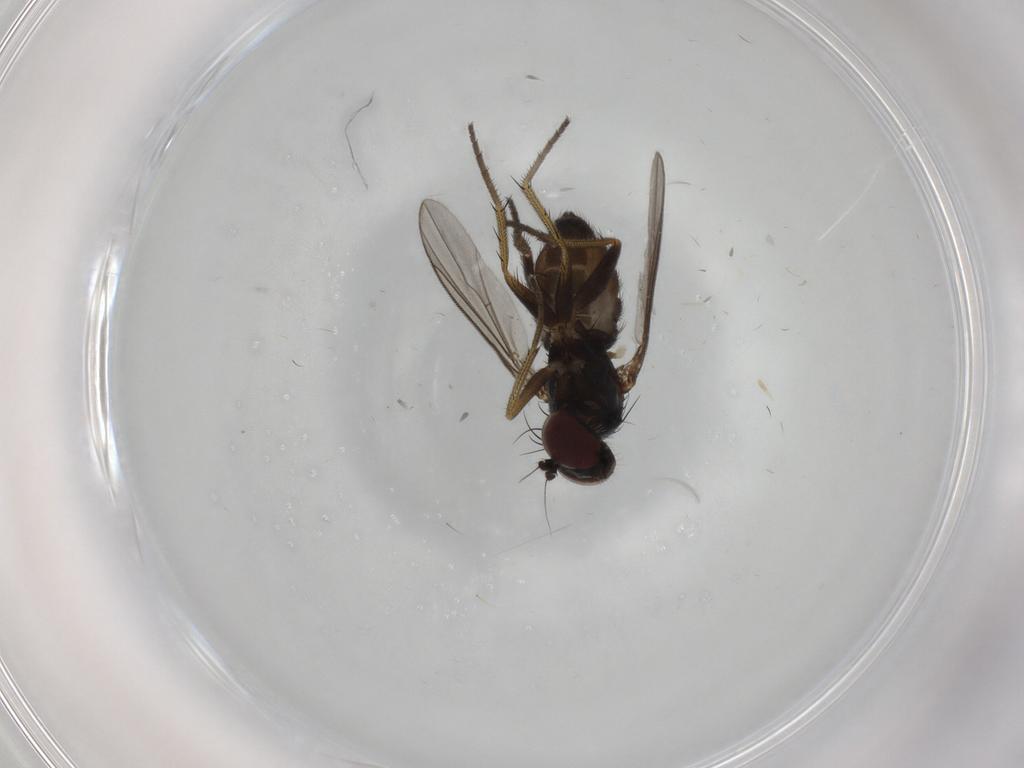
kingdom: Animalia
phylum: Arthropoda
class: Insecta
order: Diptera
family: Dolichopodidae
